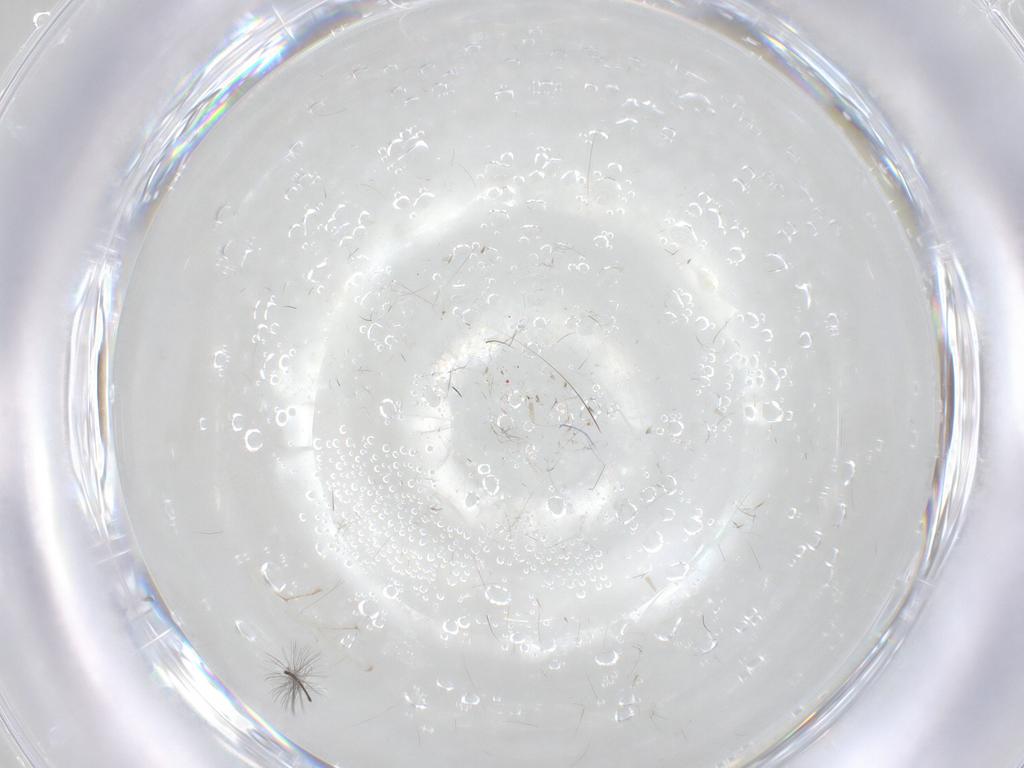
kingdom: Animalia
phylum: Arthropoda
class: Insecta
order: Hymenoptera
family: Ichneumonidae
